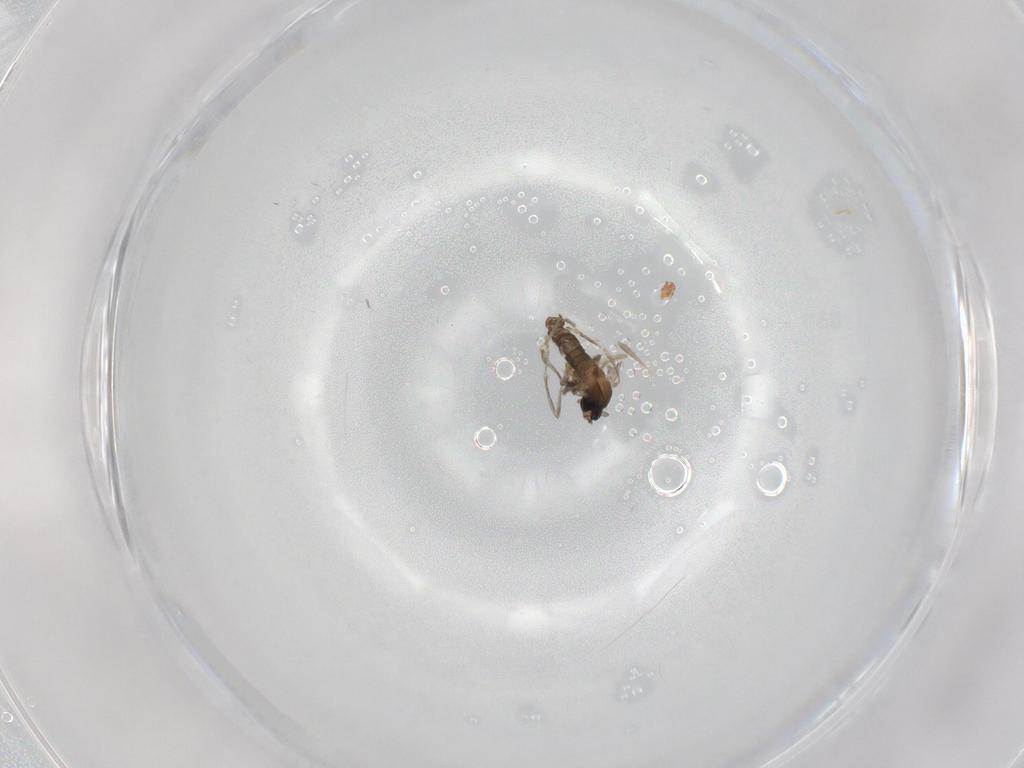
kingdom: Animalia
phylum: Arthropoda
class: Insecta
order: Diptera
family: Cecidomyiidae
